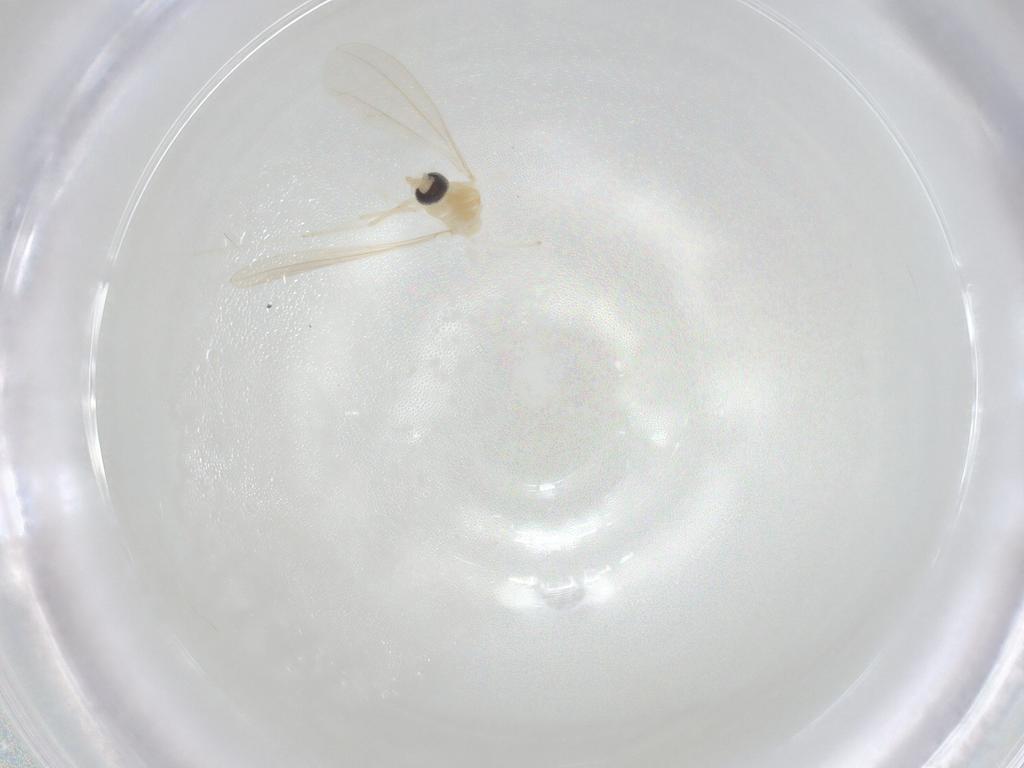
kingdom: Animalia
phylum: Arthropoda
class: Insecta
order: Diptera
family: Cecidomyiidae
